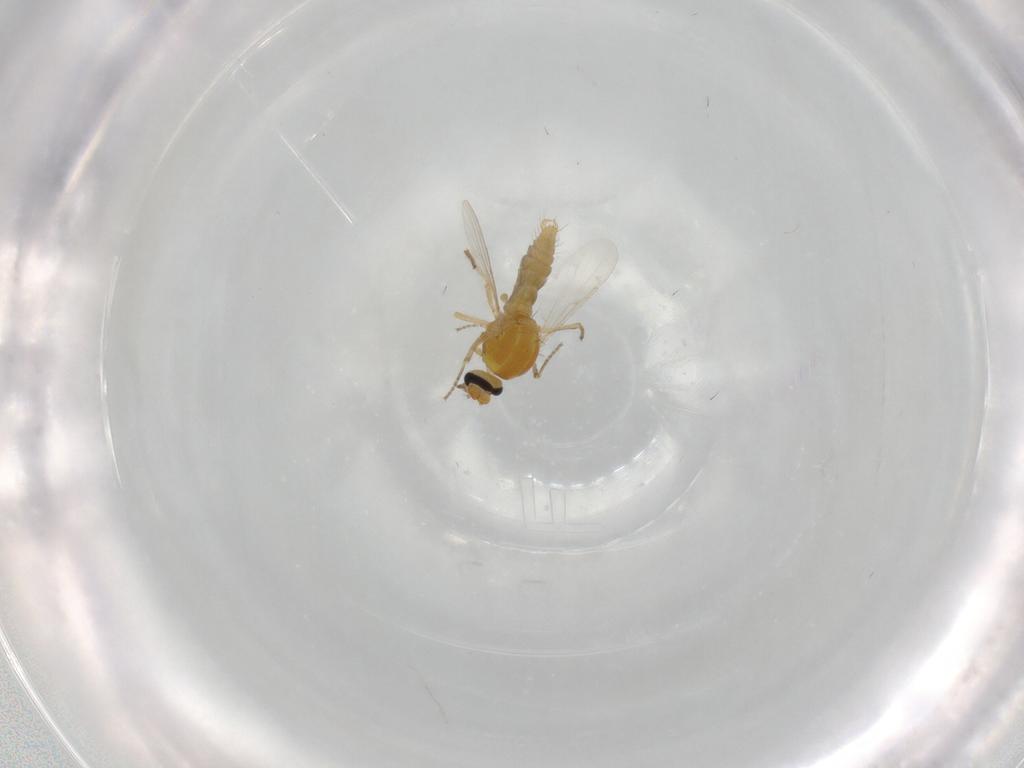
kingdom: Animalia
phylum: Arthropoda
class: Insecta
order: Diptera
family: Ceratopogonidae
